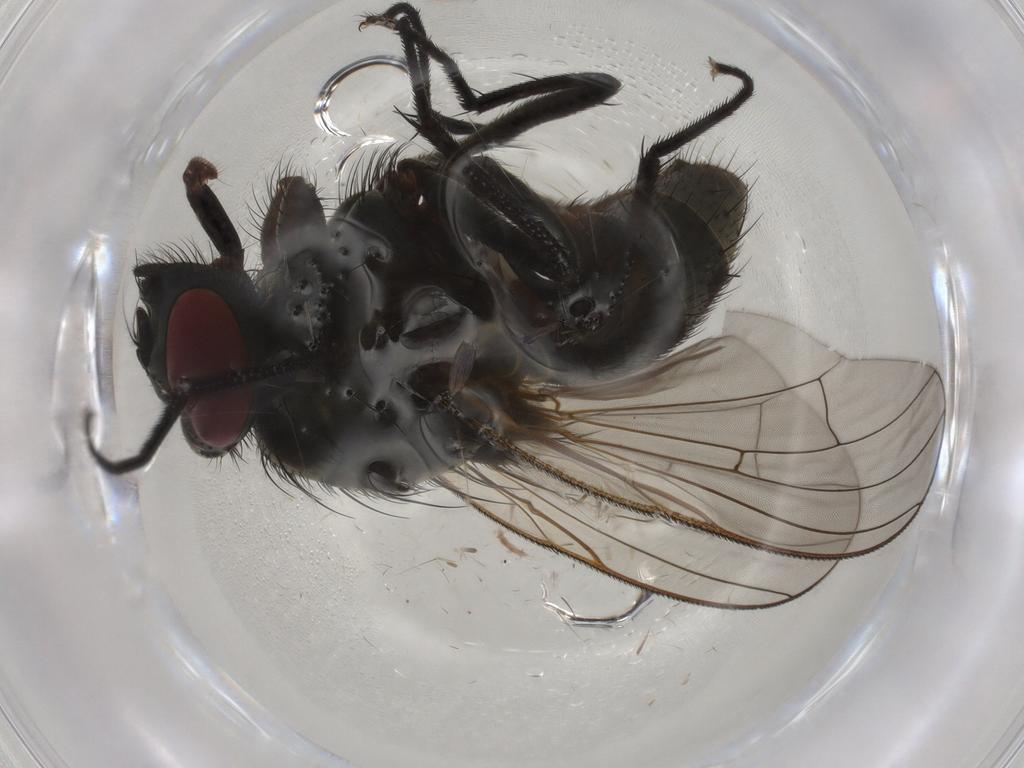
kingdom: Animalia
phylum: Arthropoda
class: Insecta
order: Diptera
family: Muscidae
